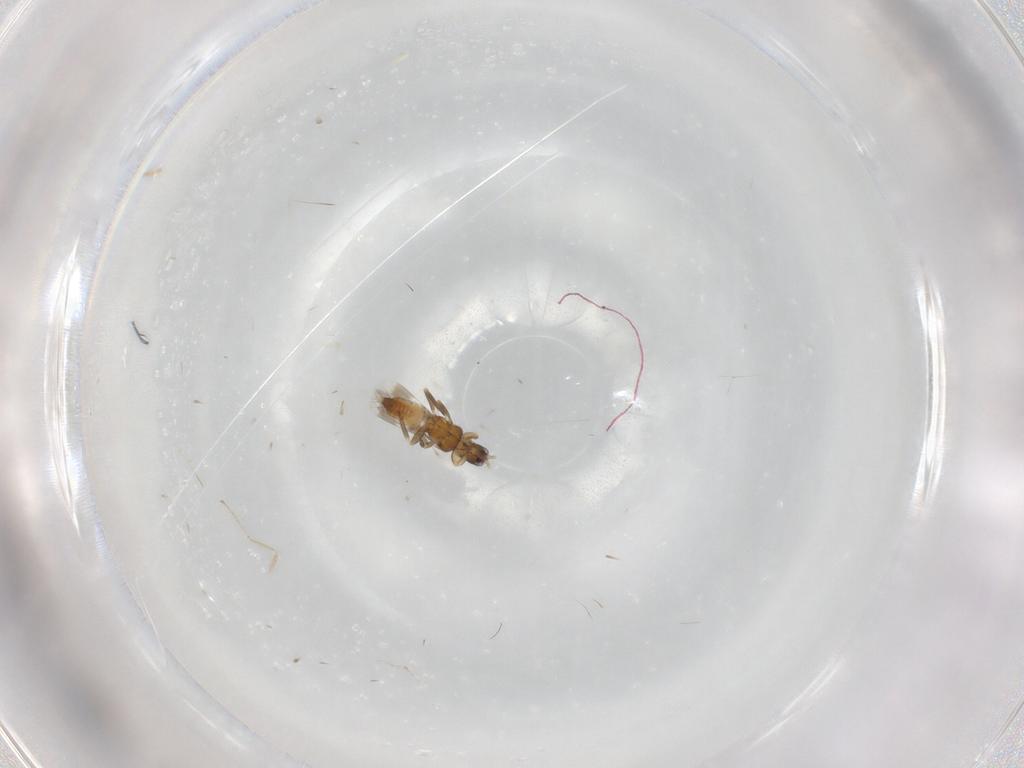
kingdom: Animalia
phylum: Arthropoda
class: Insecta
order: Thysanoptera
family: Aeolothripidae
